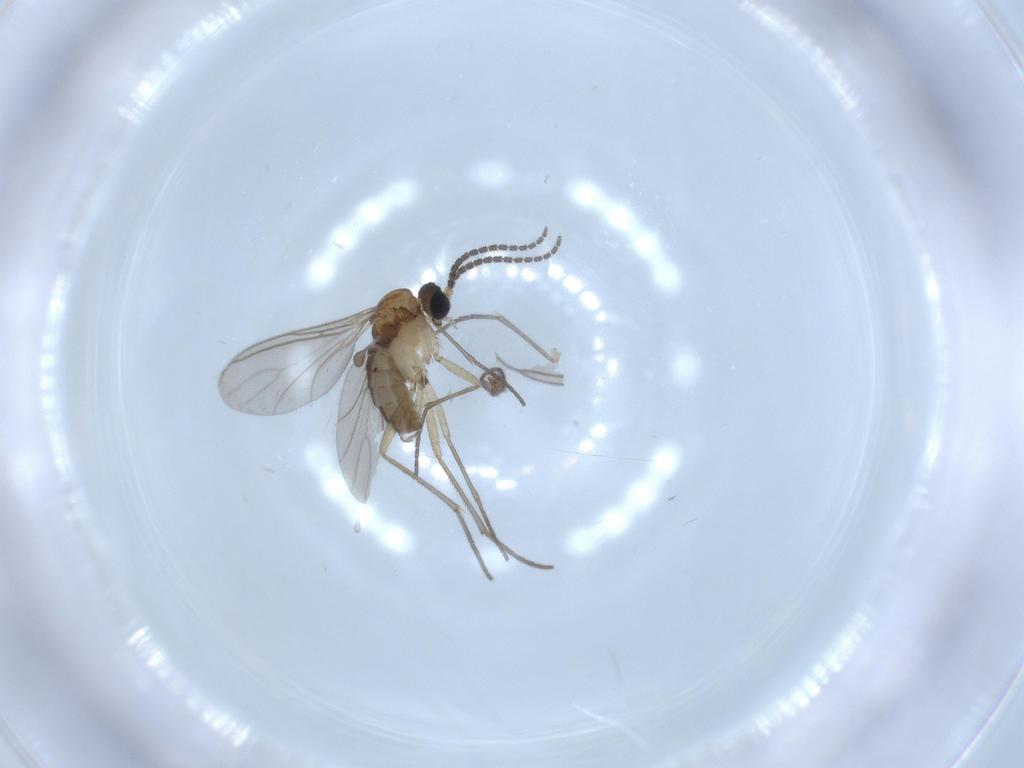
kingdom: Animalia
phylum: Arthropoda
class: Insecta
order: Diptera
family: Sciaridae
